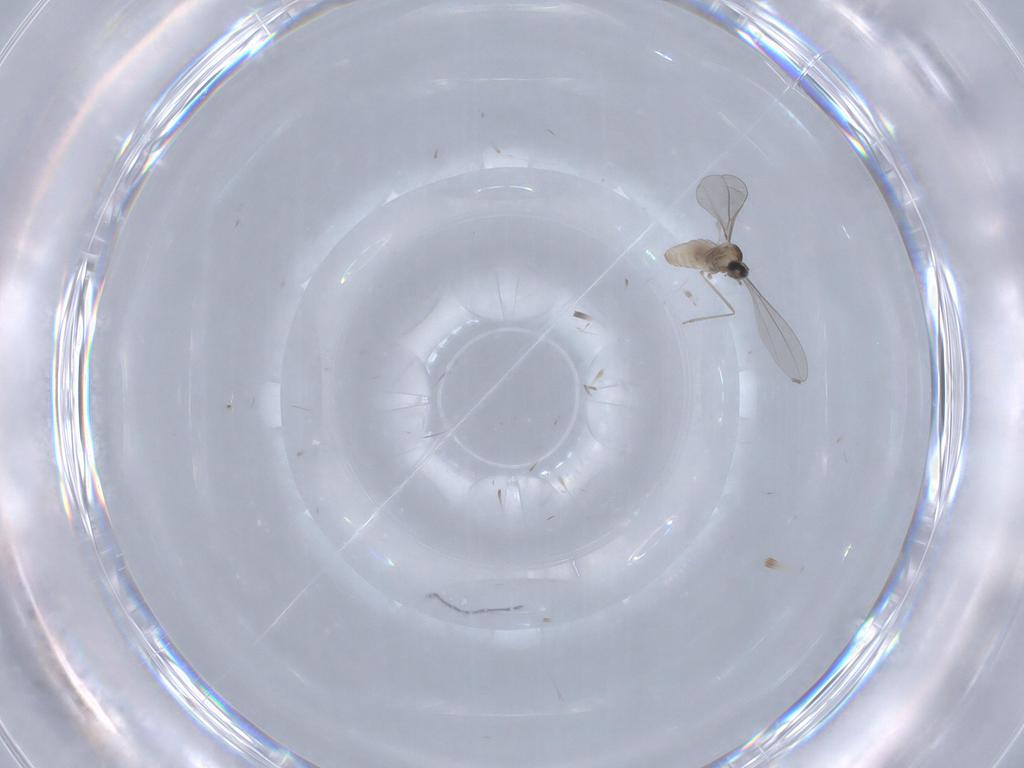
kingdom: Animalia
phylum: Arthropoda
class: Insecta
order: Diptera
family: Cecidomyiidae
